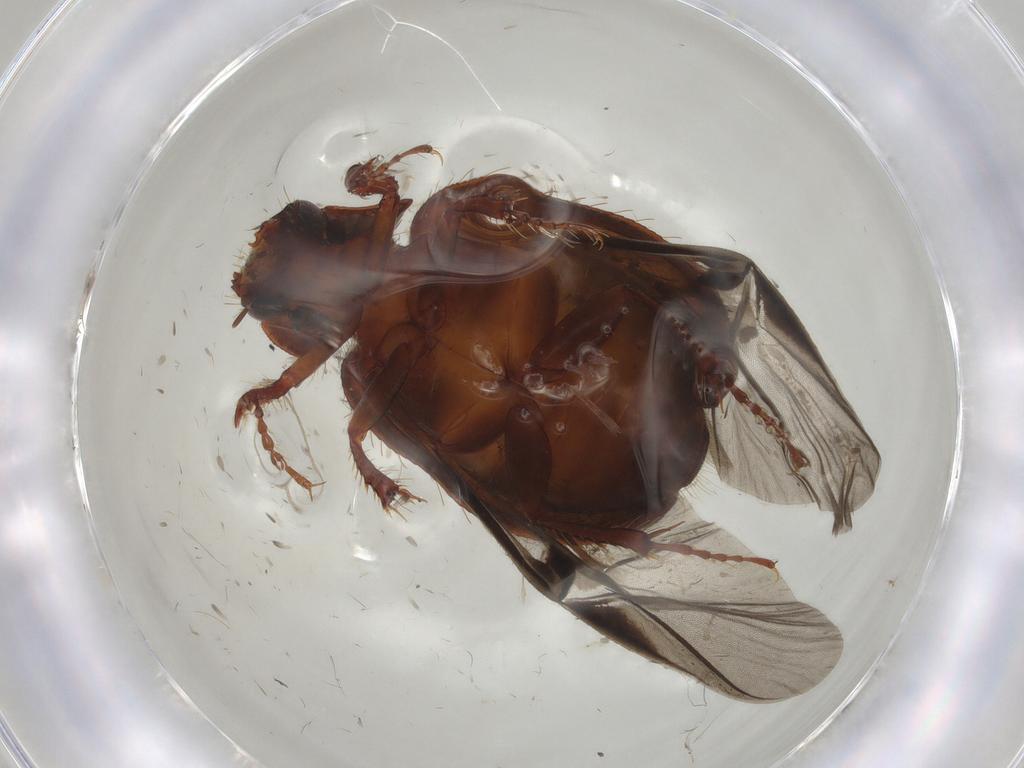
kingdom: Animalia
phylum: Arthropoda
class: Insecta
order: Coleoptera
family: Hybosoridae
